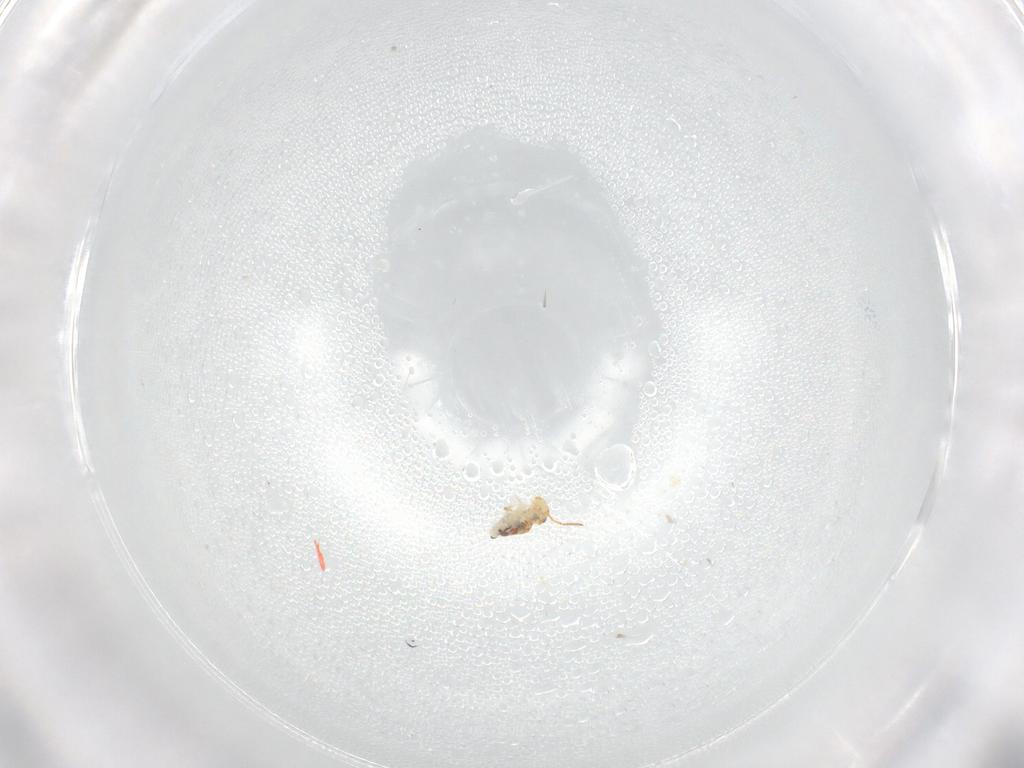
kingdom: Animalia
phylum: Arthropoda
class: Collembola
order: Symphypleona
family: Bourletiellidae
